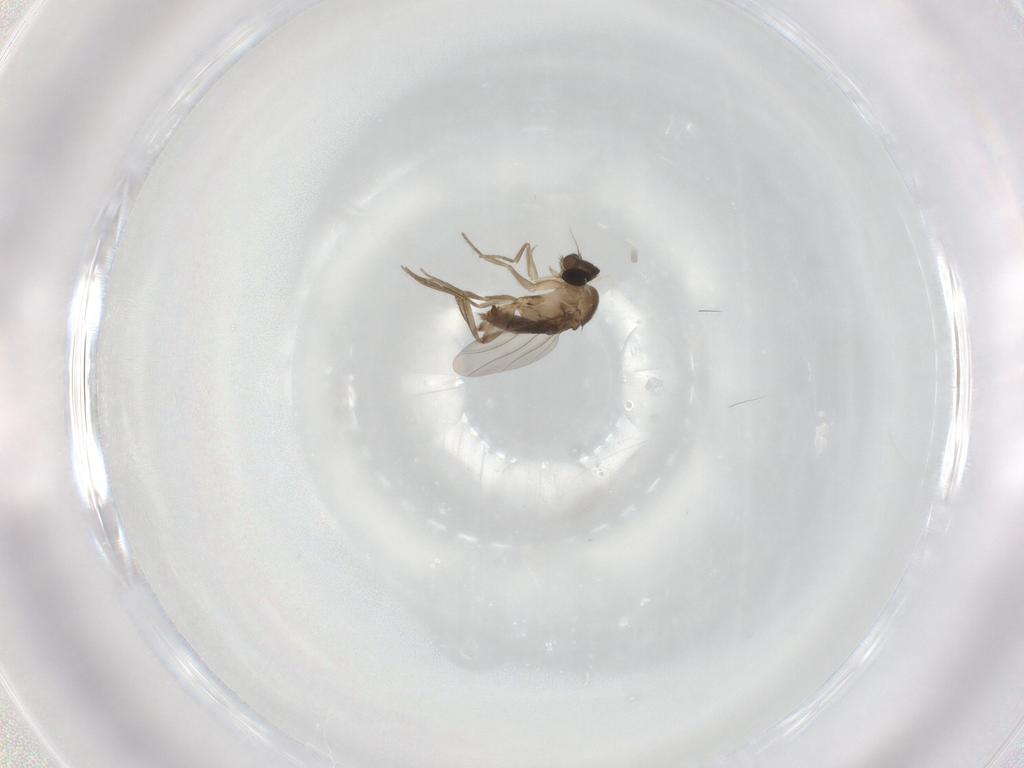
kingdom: Animalia
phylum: Arthropoda
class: Insecta
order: Diptera
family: Phoridae
